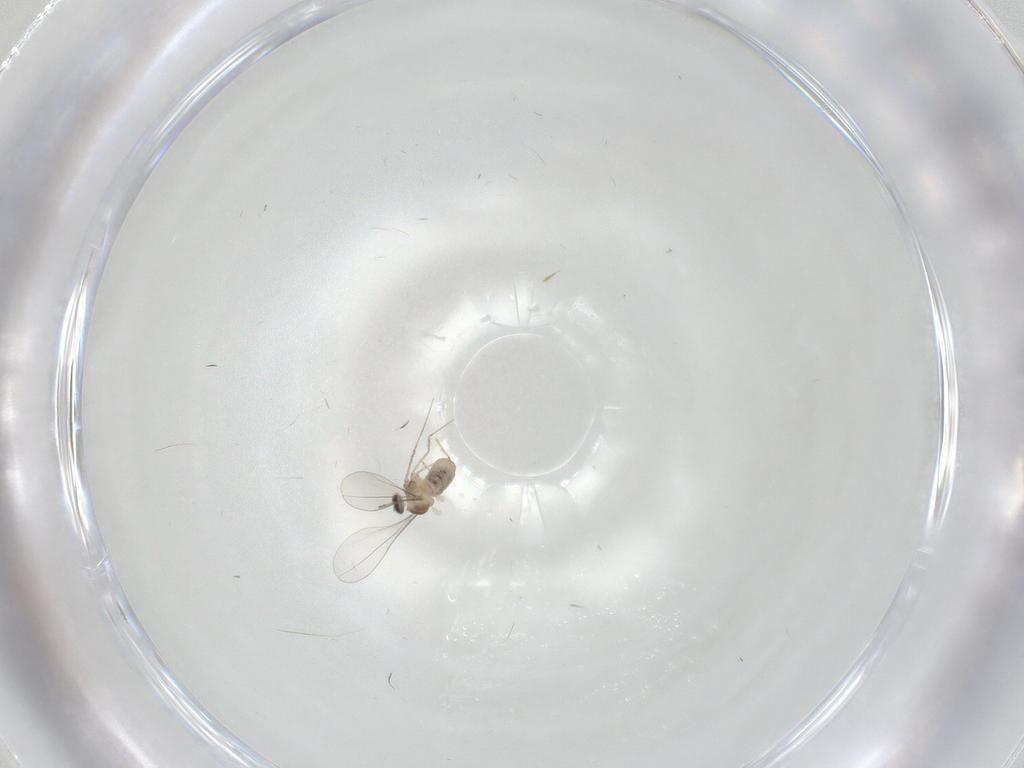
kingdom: Animalia
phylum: Arthropoda
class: Insecta
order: Diptera
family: Cecidomyiidae
